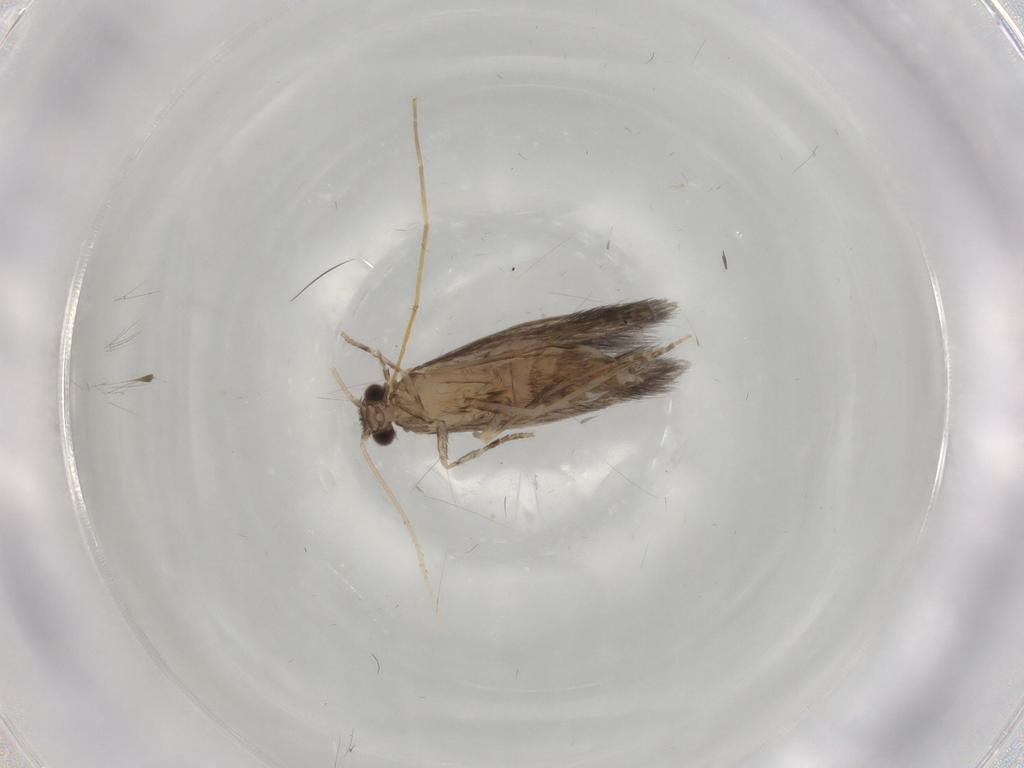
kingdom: Animalia
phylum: Arthropoda
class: Insecta
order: Trichoptera
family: Hydroptilidae
